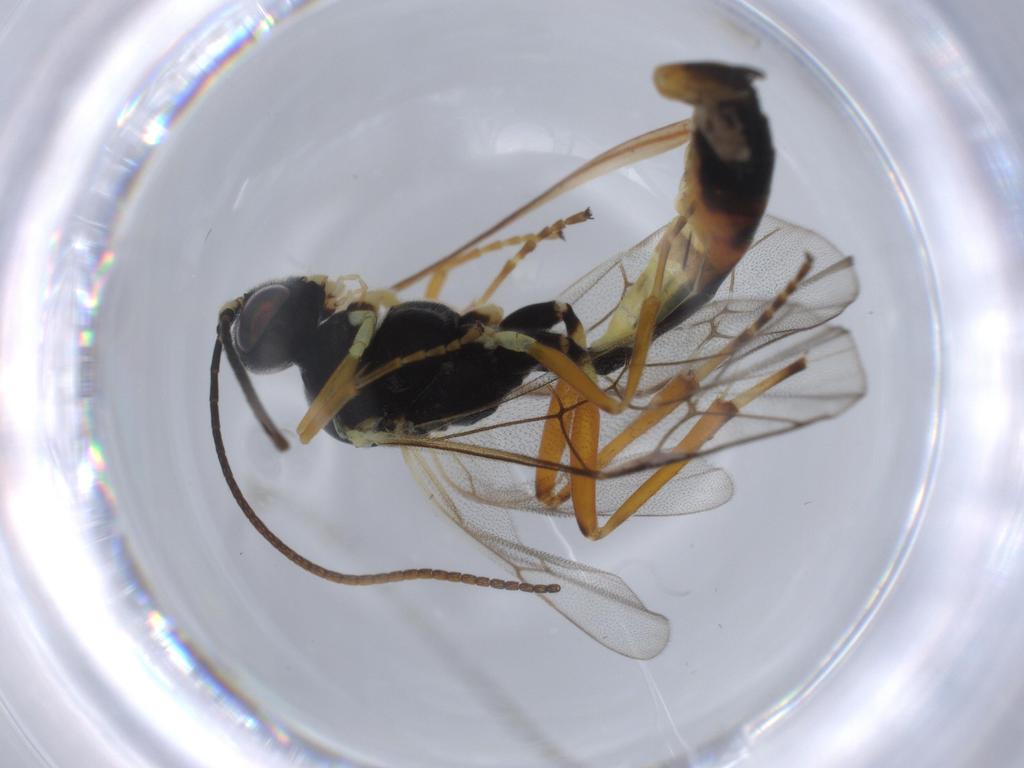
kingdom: Animalia
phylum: Arthropoda
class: Insecta
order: Hymenoptera
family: Ichneumonidae
